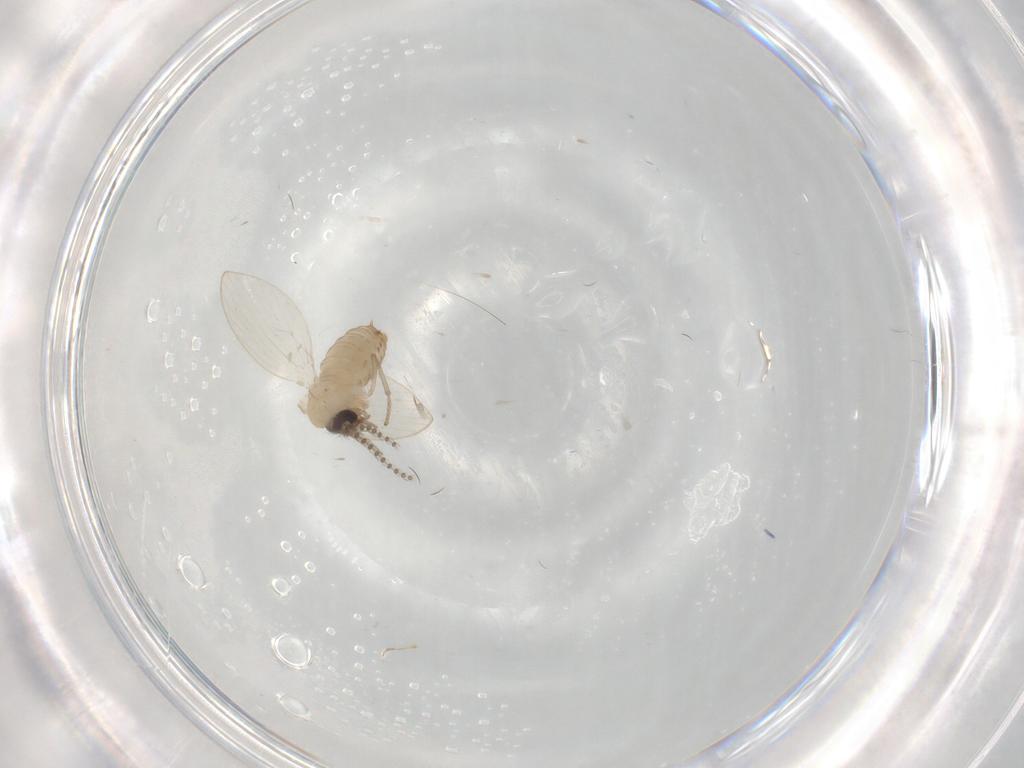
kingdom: Animalia
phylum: Arthropoda
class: Insecta
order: Diptera
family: Psychodidae
